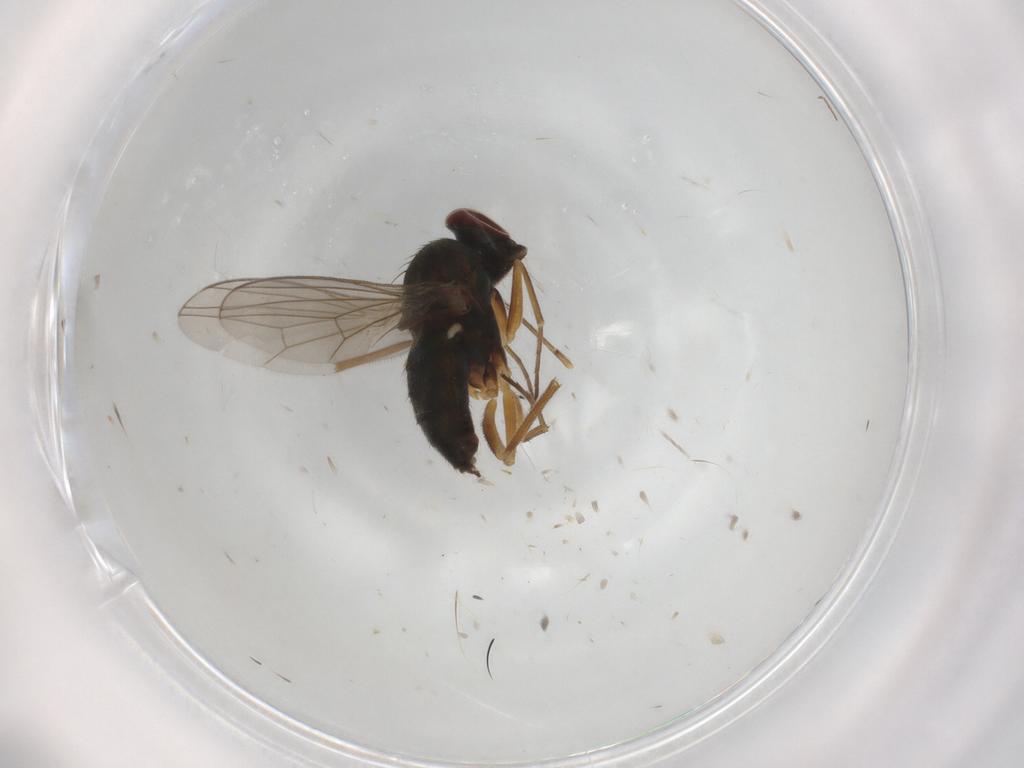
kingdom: Animalia
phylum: Arthropoda
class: Insecta
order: Diptera
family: Dolichopodidae
